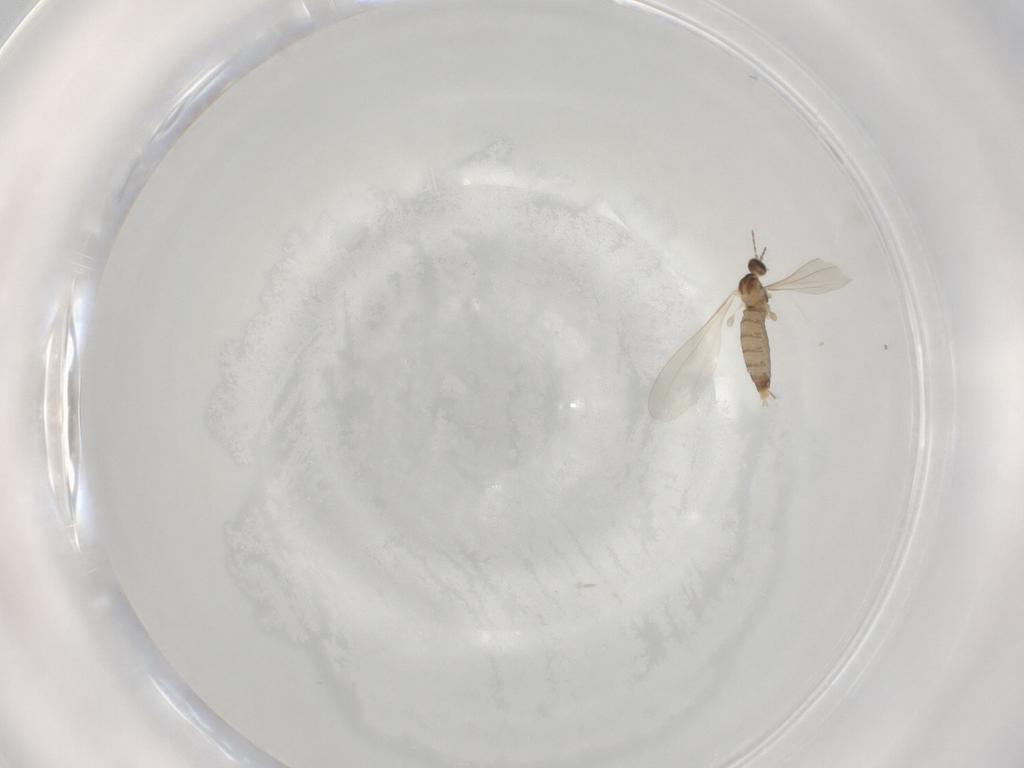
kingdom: Animalia
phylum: Arthropoda
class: Insecta
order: Diptera
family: Cecidomyiidae
